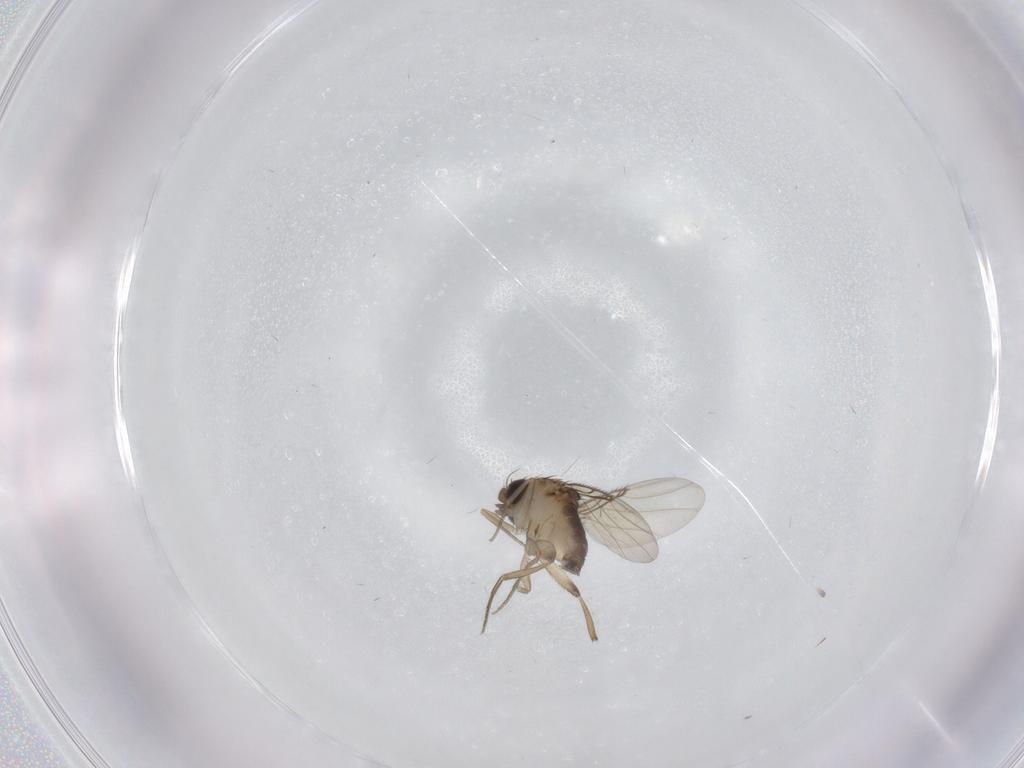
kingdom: Animalia
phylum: Arthropoda
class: Insecta
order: Diptera
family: Phoridae
